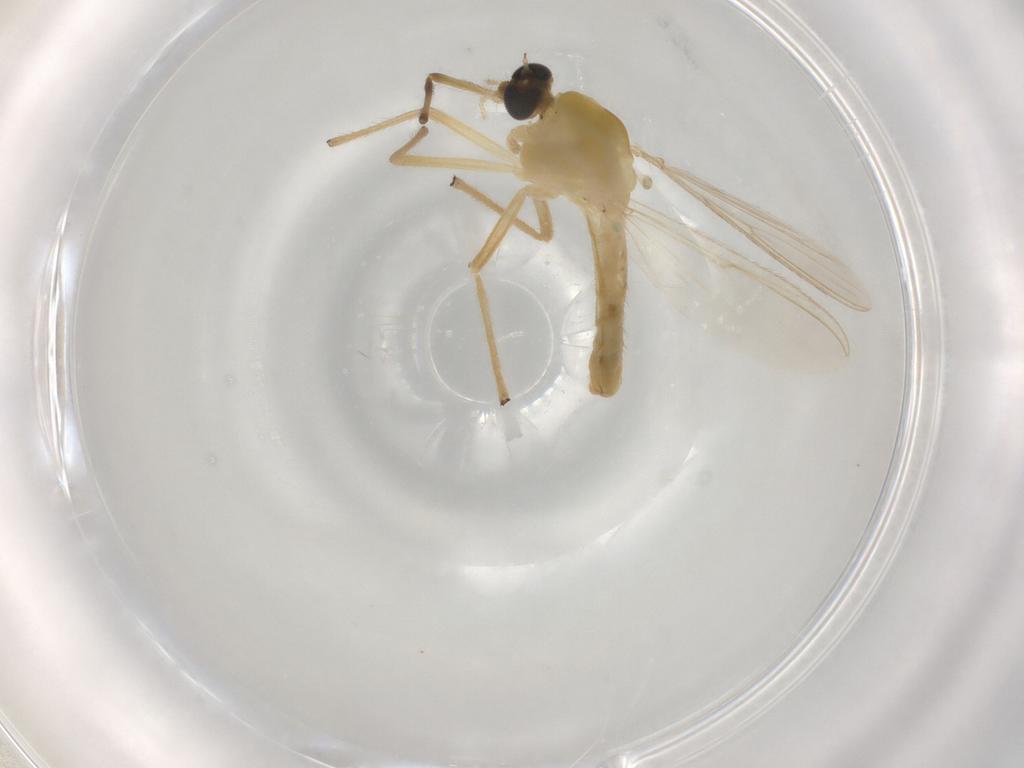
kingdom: Animalia
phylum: Arthropoda
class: Insecta
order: Diptera
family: Chironomidae
